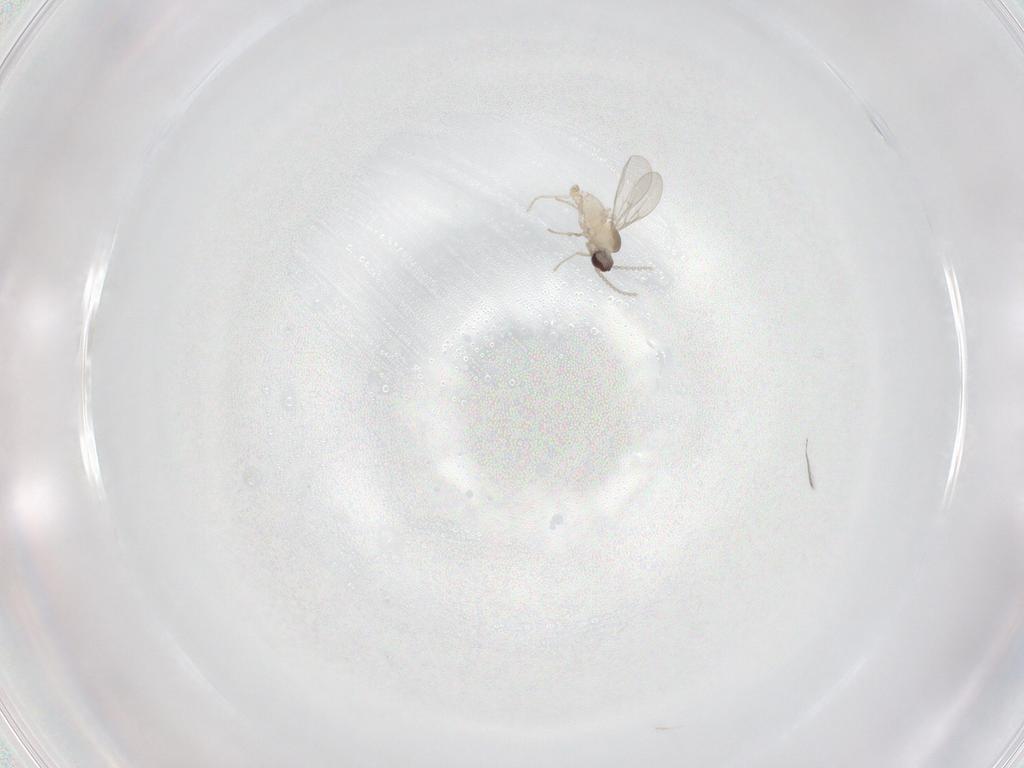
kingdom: Animalia
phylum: Arthropoda
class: Insecta
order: Diptera
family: Cecidomyiidae
